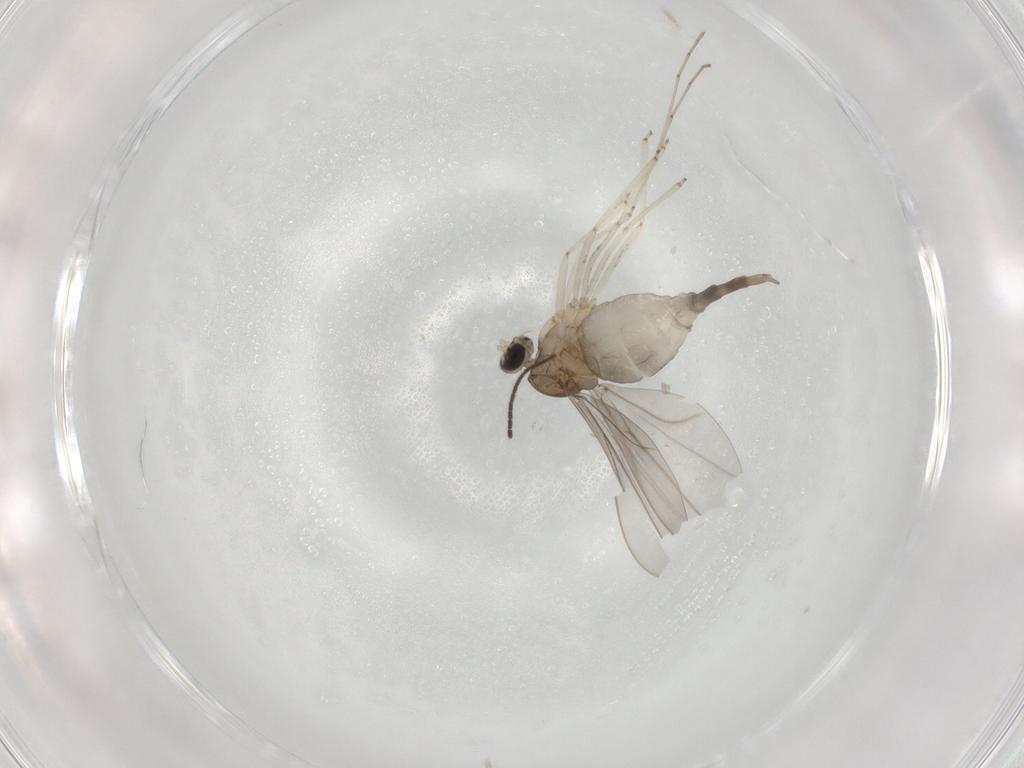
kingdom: Animalia
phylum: Arthropoda
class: Insecta
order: Diptera
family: Cecidomyiidae
